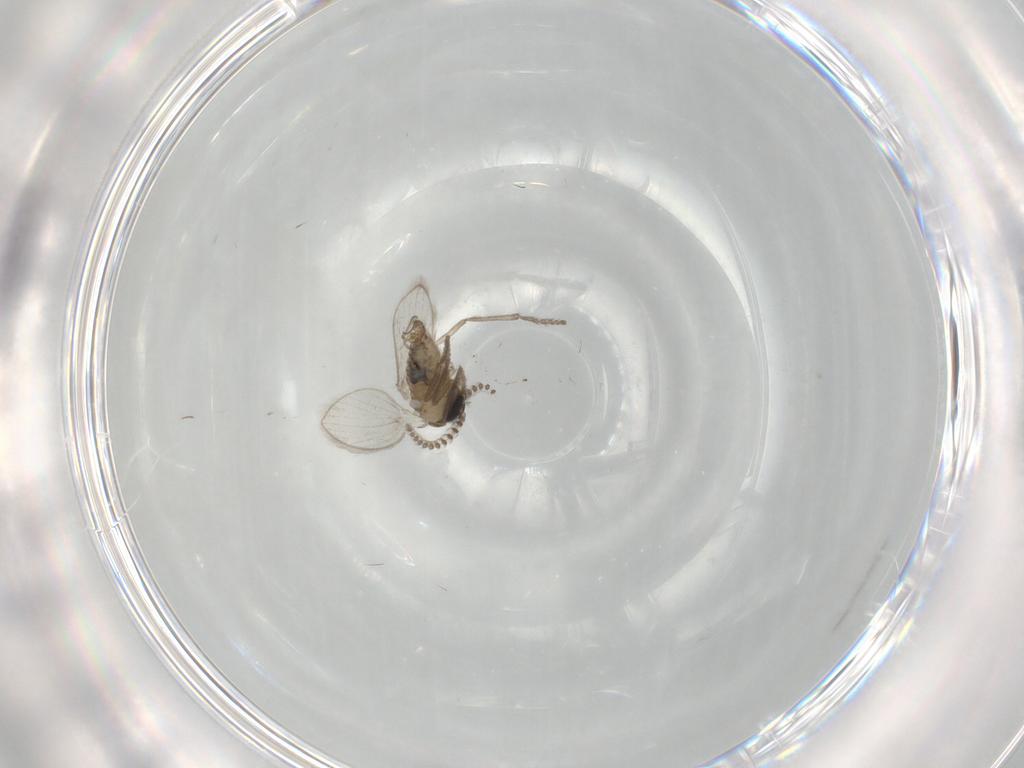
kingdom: Animalia
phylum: Arthropoda
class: Insecta
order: Diptera
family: Psychodidae
